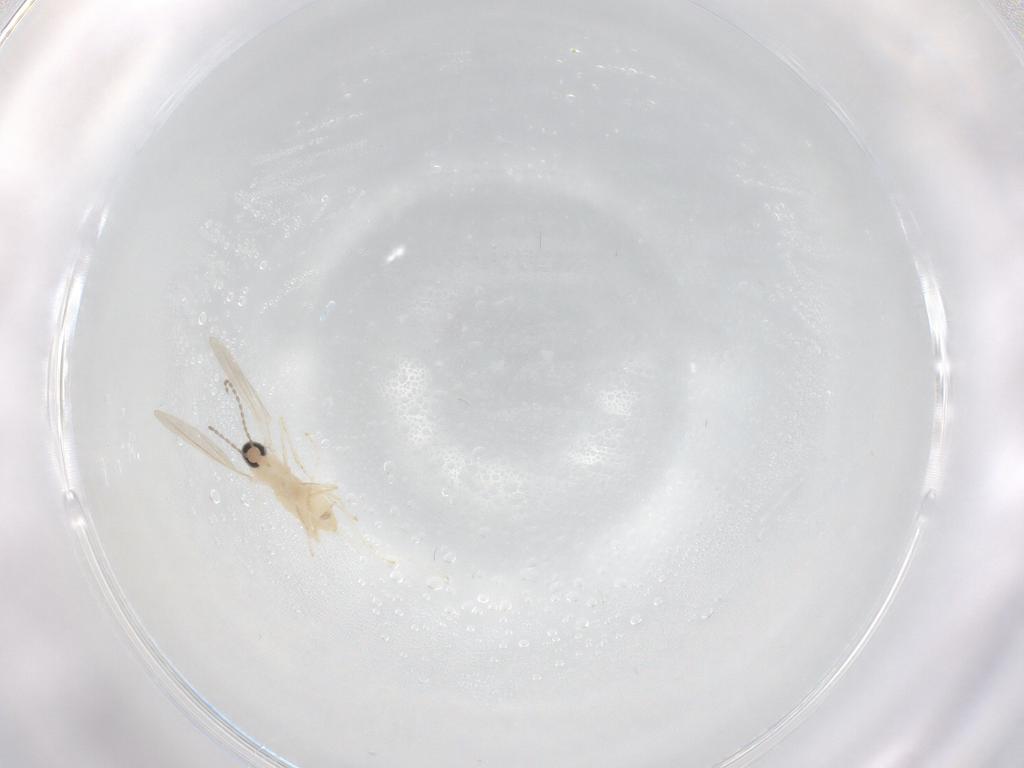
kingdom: Animalia
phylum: Arthropoda
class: Insecta
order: Diptera
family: Cecidomyiidae
